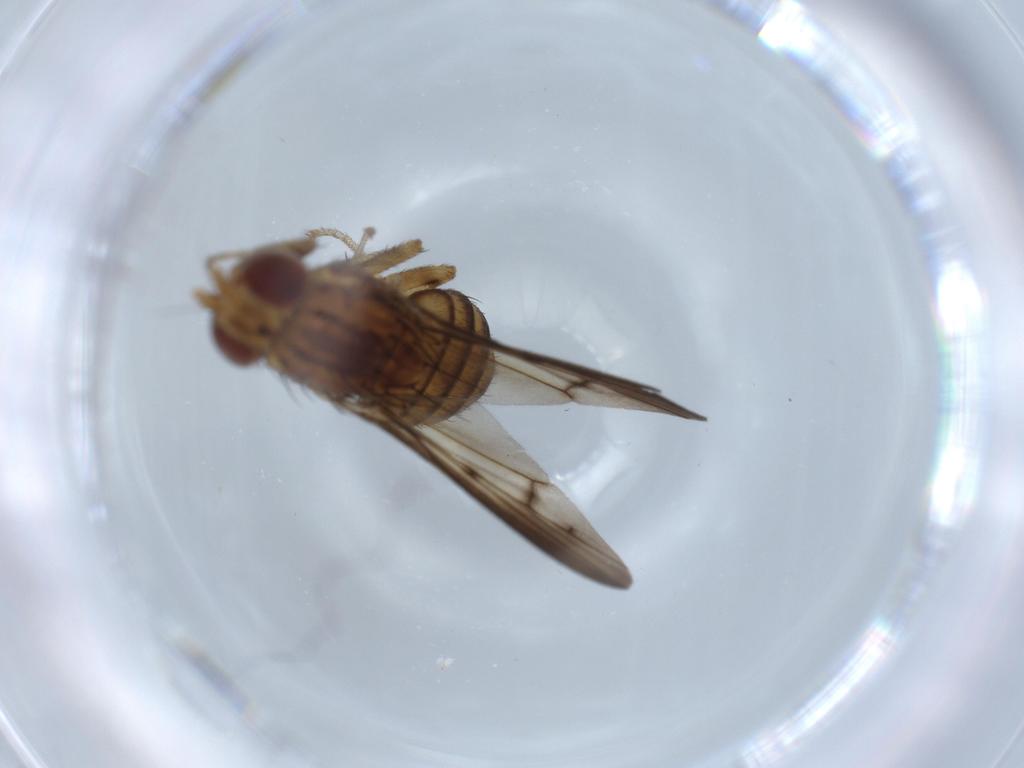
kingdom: Animalia
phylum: Arthropoda
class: Insecta
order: Diptera
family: Lauxaniidae
